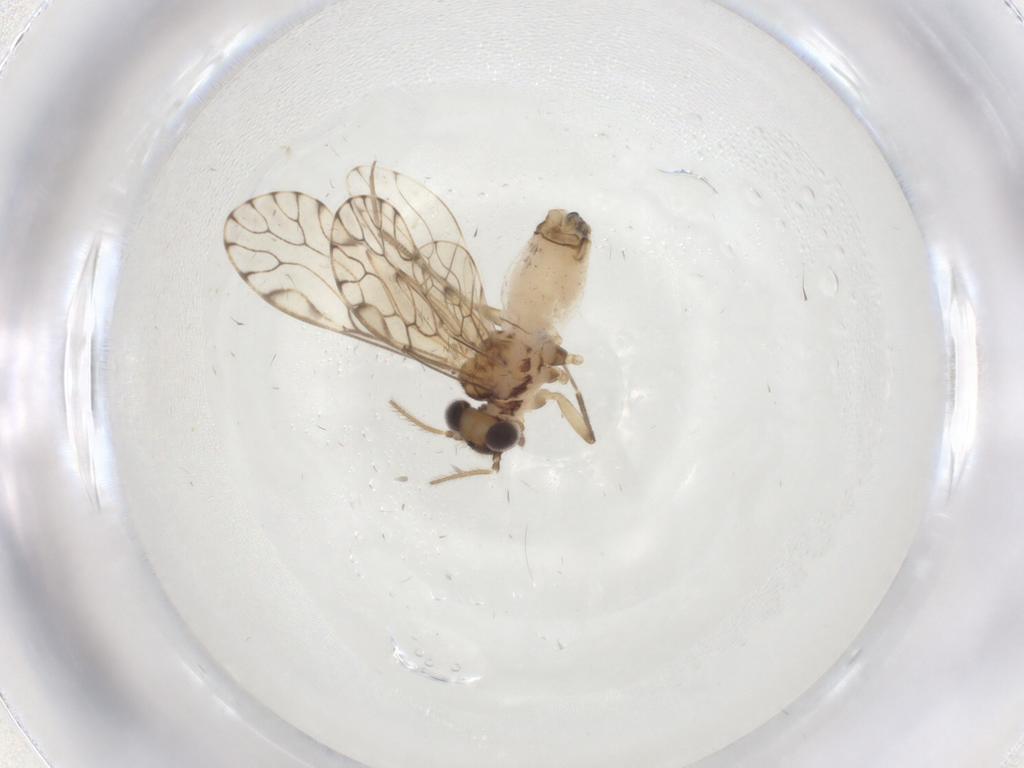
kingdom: Animalia
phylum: Arthropoda
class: Insecta
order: Psocodea
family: Epipsocidae
